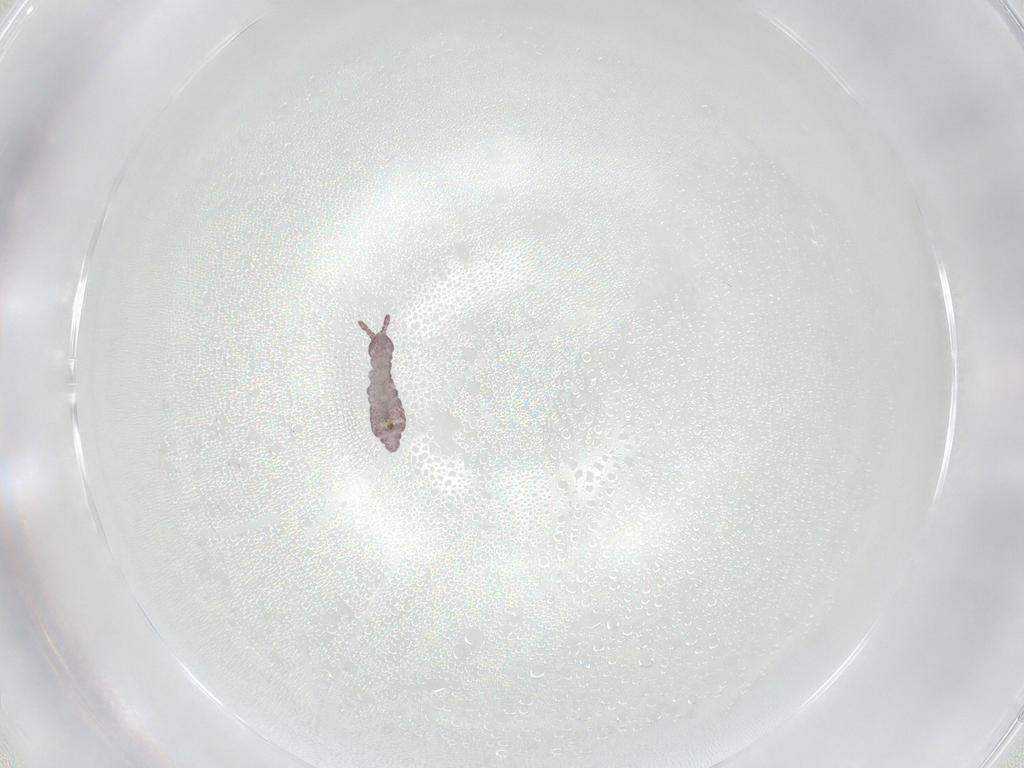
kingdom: Animalia
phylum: Arthropoda
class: Collembola
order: Poduromorpha
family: Hypogastruridae
